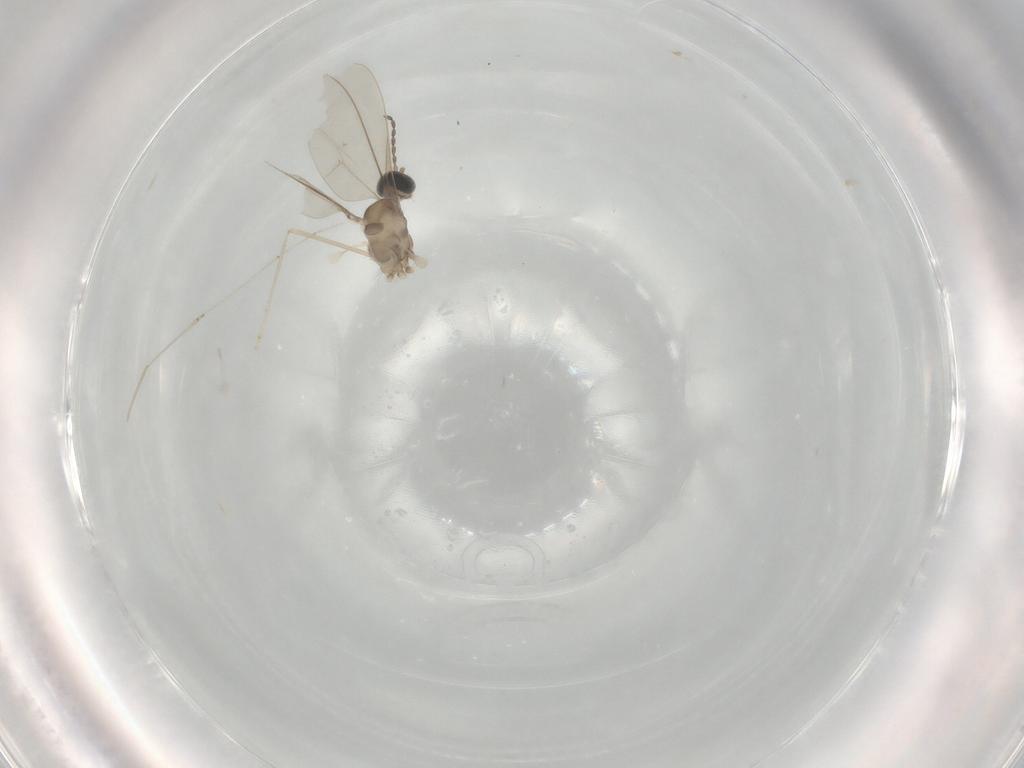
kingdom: Animalia
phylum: Arthropoda
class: Insecta
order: Diptera
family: Cecidomyiidae
